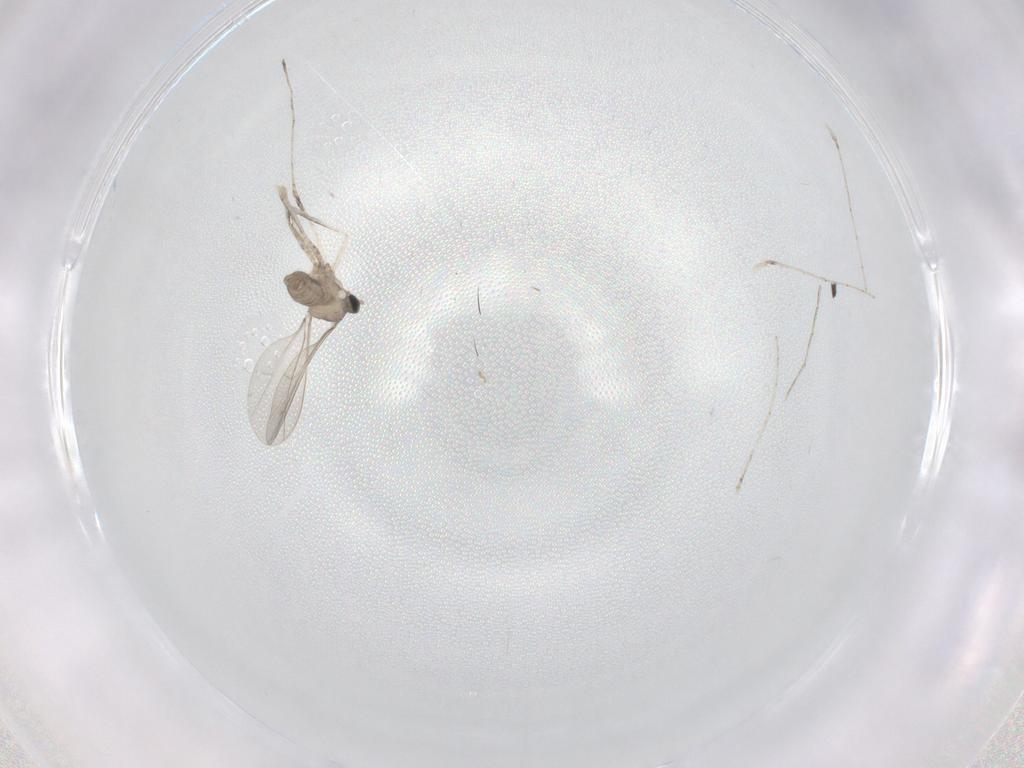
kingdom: Animalia
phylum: Arthropoda
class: Insecta
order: Diptera
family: Cecidomyiidae
